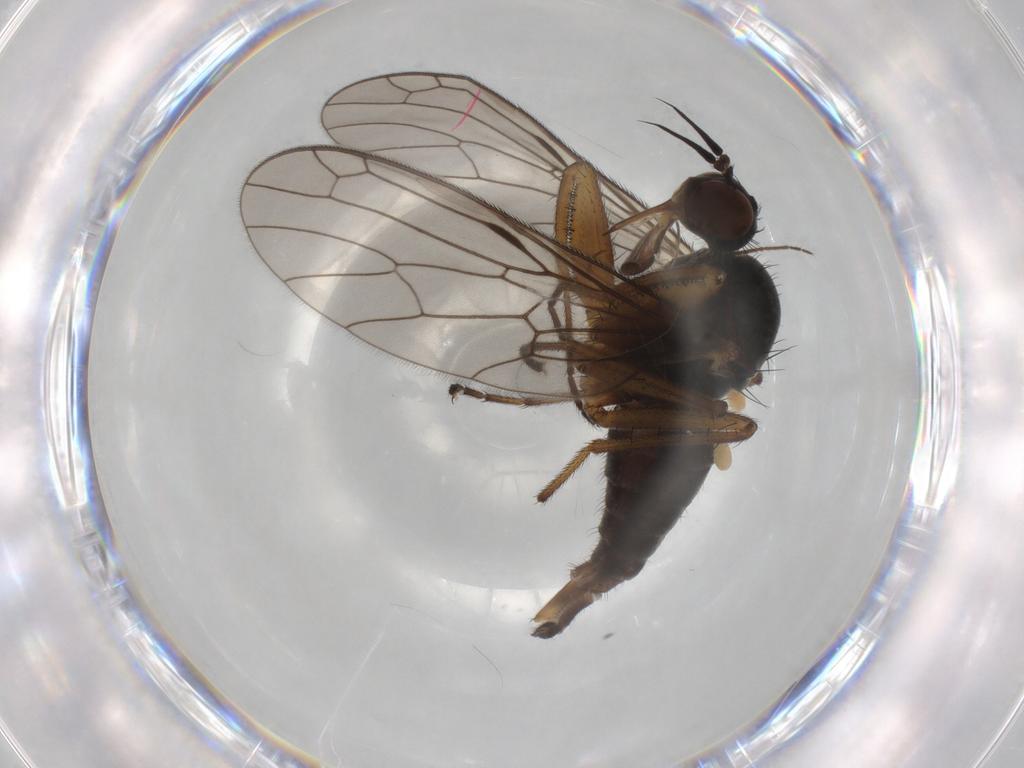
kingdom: Animalia
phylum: Arthropoda
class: Insecta
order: Diptera
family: Empididae
